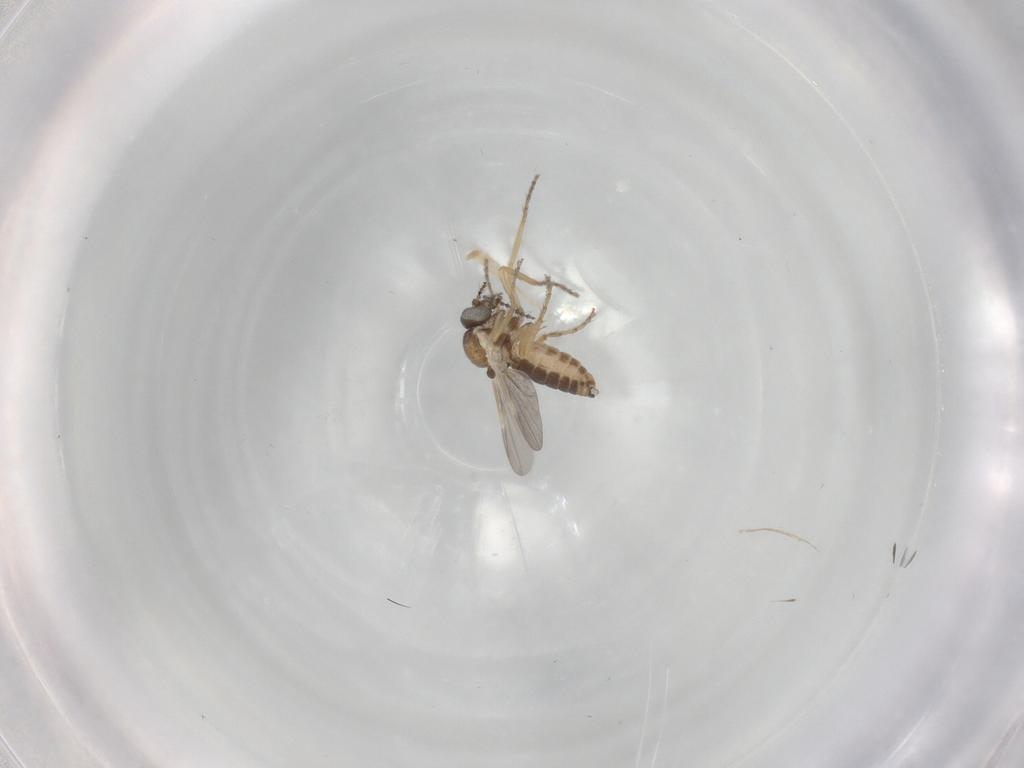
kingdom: Animalia
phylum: Arthropoda
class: Insecta
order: Diptera
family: Ceratopogonidae
